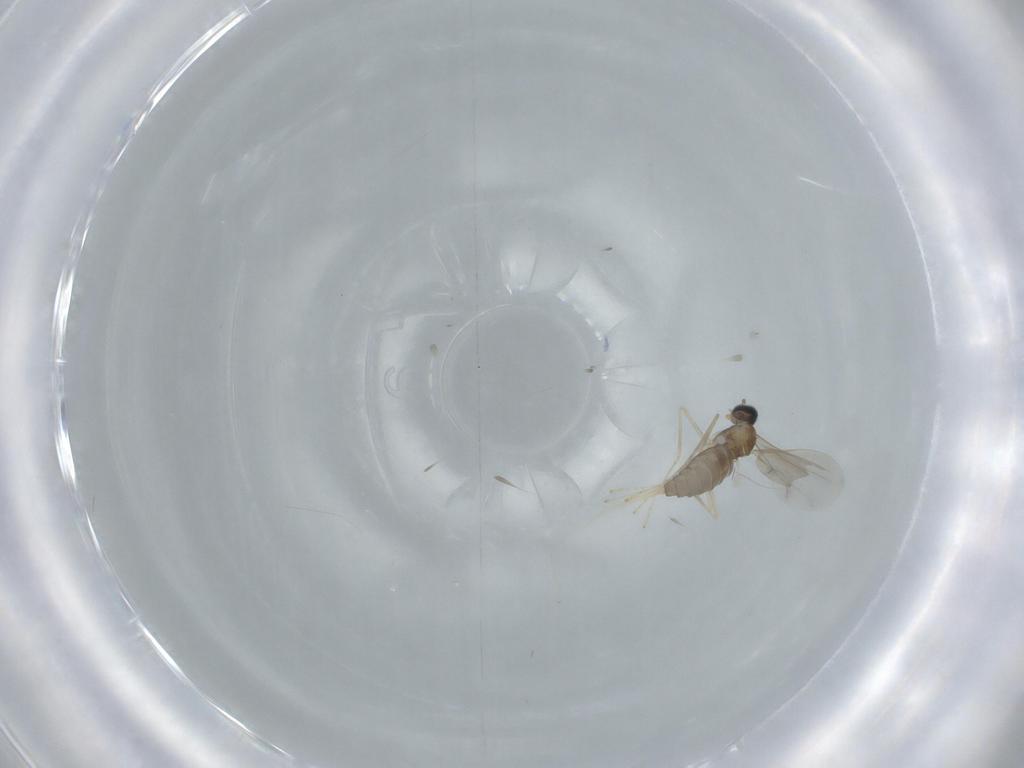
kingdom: Animalia
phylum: Arthropoda
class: Insecta
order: Diptera
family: Cecidomyiidae
